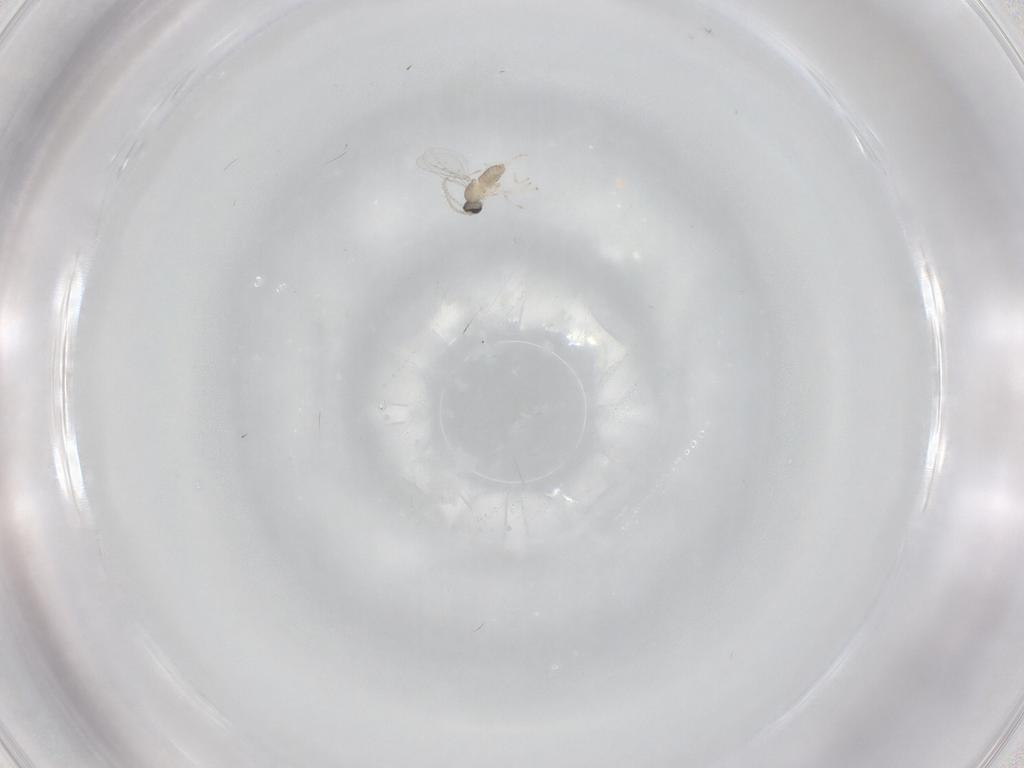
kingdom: Animalia
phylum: Arthropoda
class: Insecta
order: Diptera
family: Cecidomyiidae
